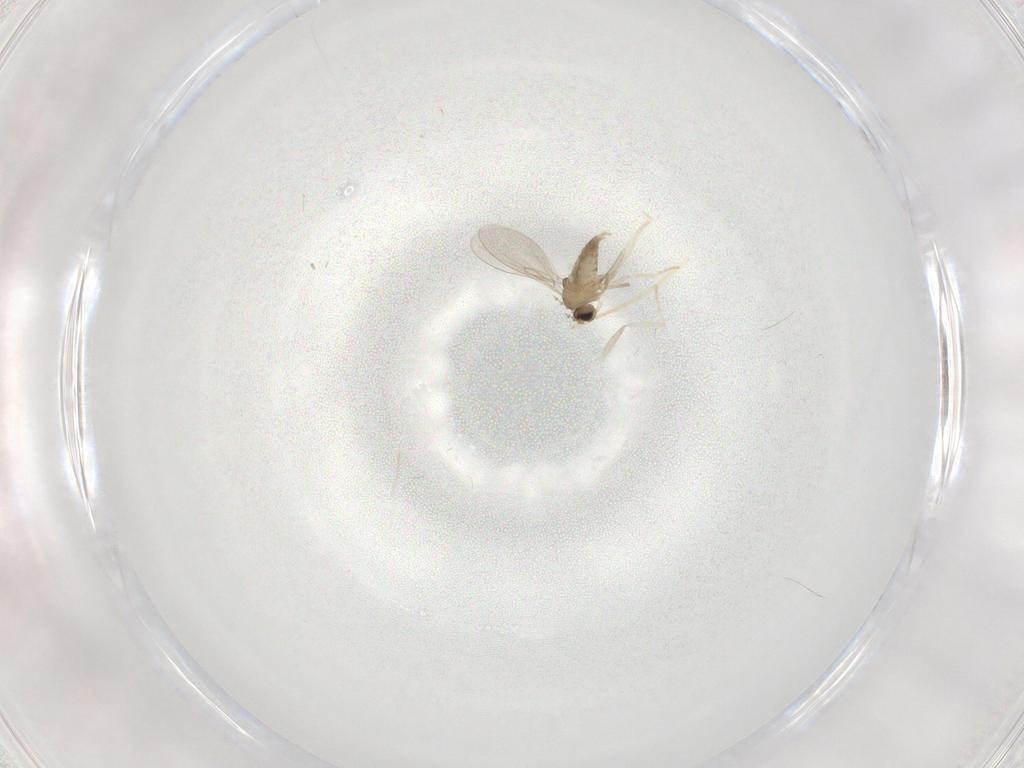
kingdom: Animalia
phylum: Arthropoda
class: Insecta
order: Diptera
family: Cecidomyiidae
